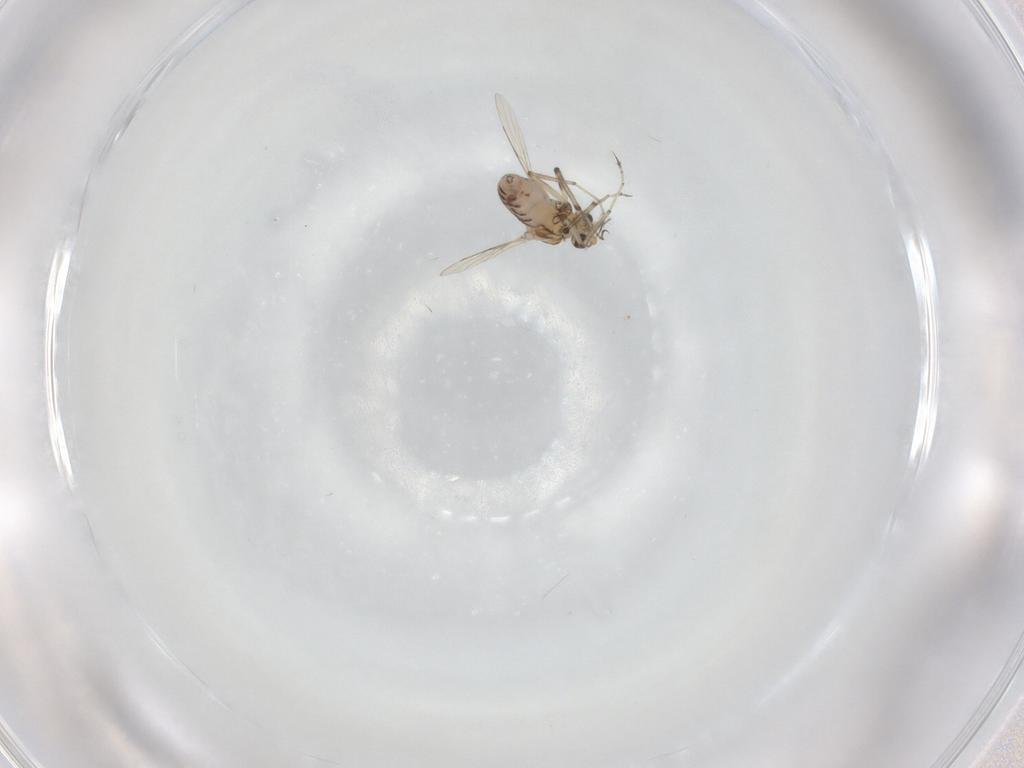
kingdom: Animalia
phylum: Arthropoda
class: Insecta
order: Diptera
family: Ceratopogonidae
